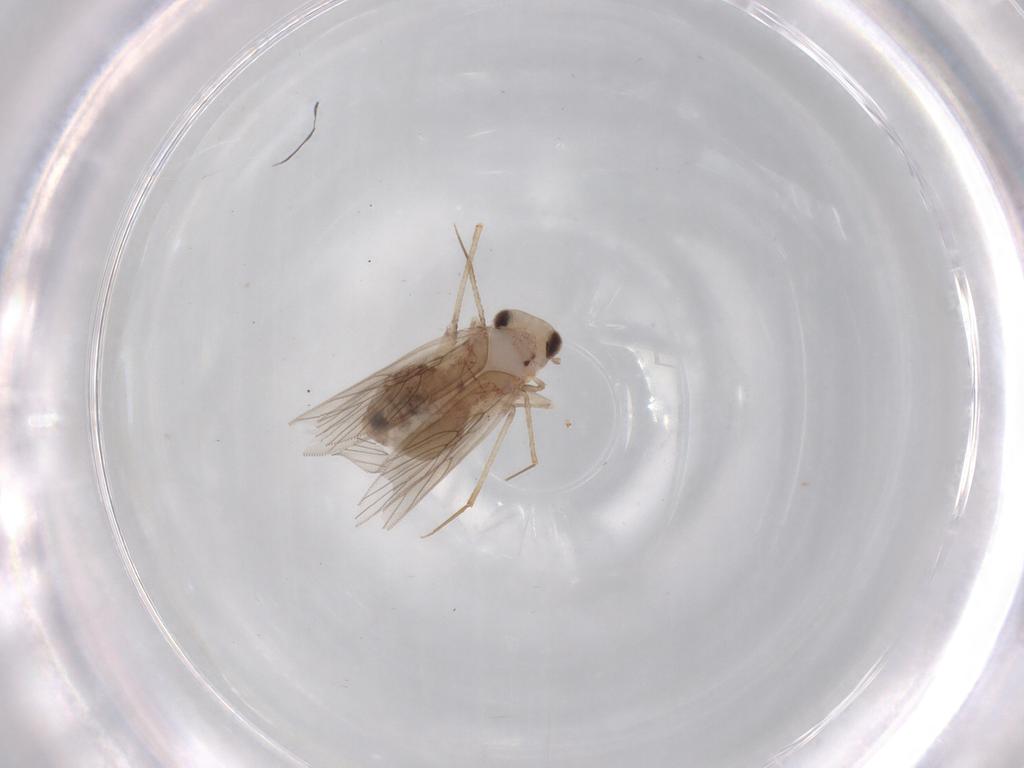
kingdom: Animalia
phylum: Arthropoda
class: Insecta
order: Psocodea
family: Lepidopsocidae
